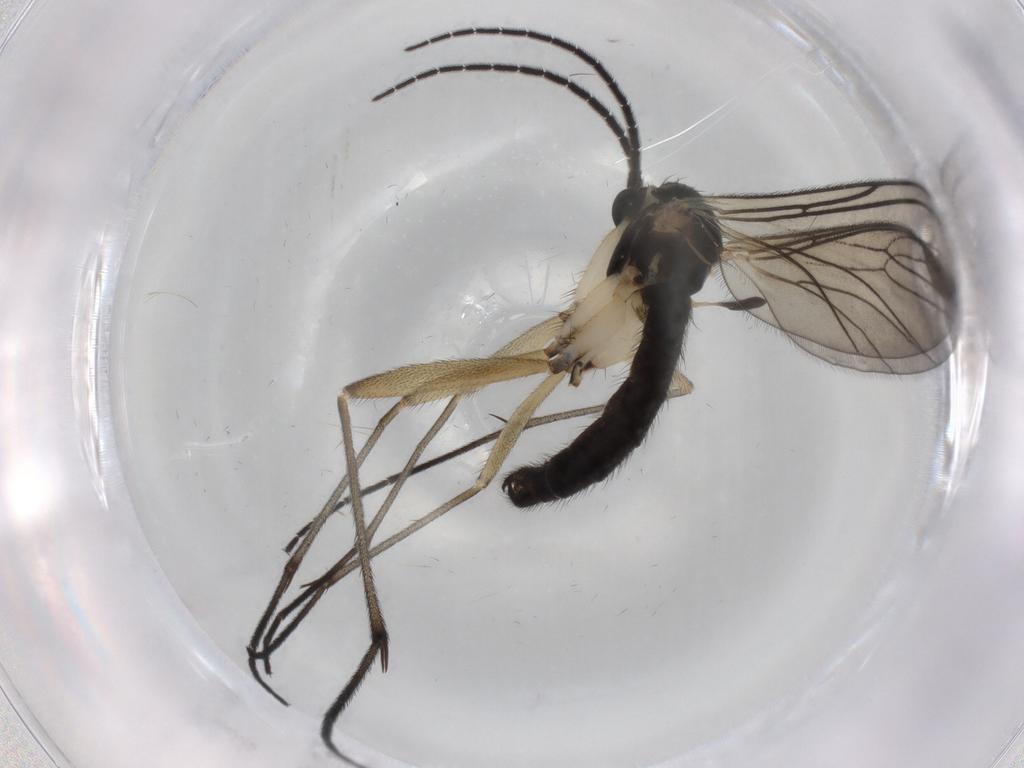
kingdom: Animalia
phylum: Arthropoda
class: Insecta
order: Diptera
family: Sciaridae
